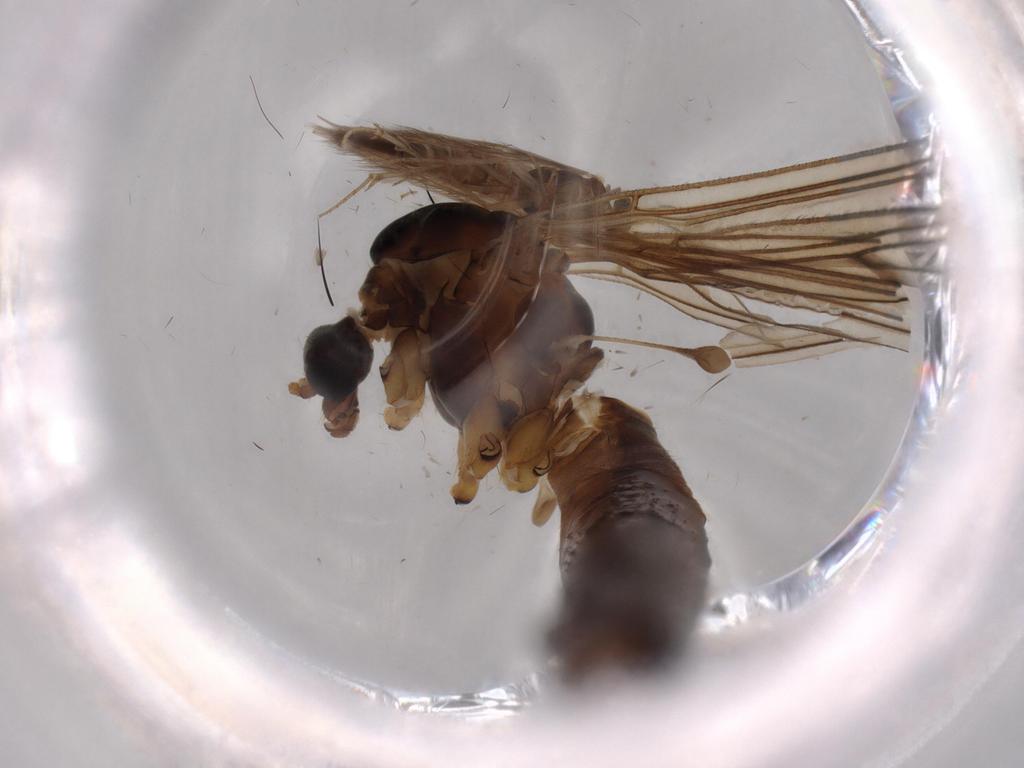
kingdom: Animalia
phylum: Arthropoda
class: Insecta
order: Diptera
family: Limoniidae
